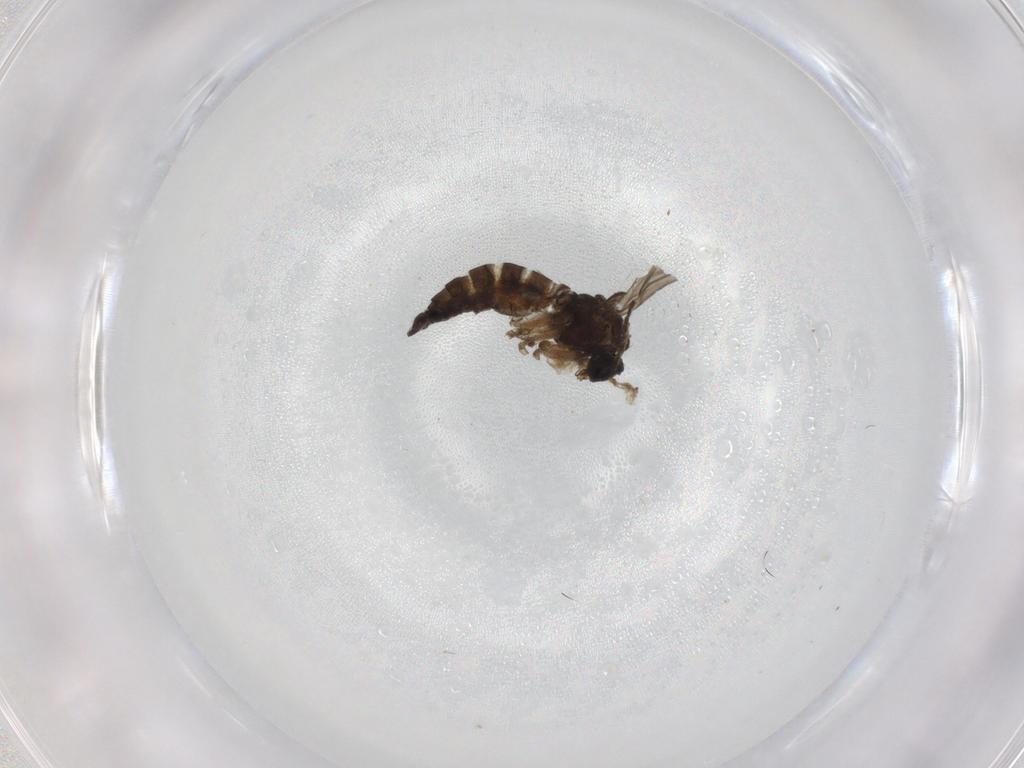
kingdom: Animalia
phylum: Arthropoda
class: Insecta
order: Diptera
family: Phoridae
